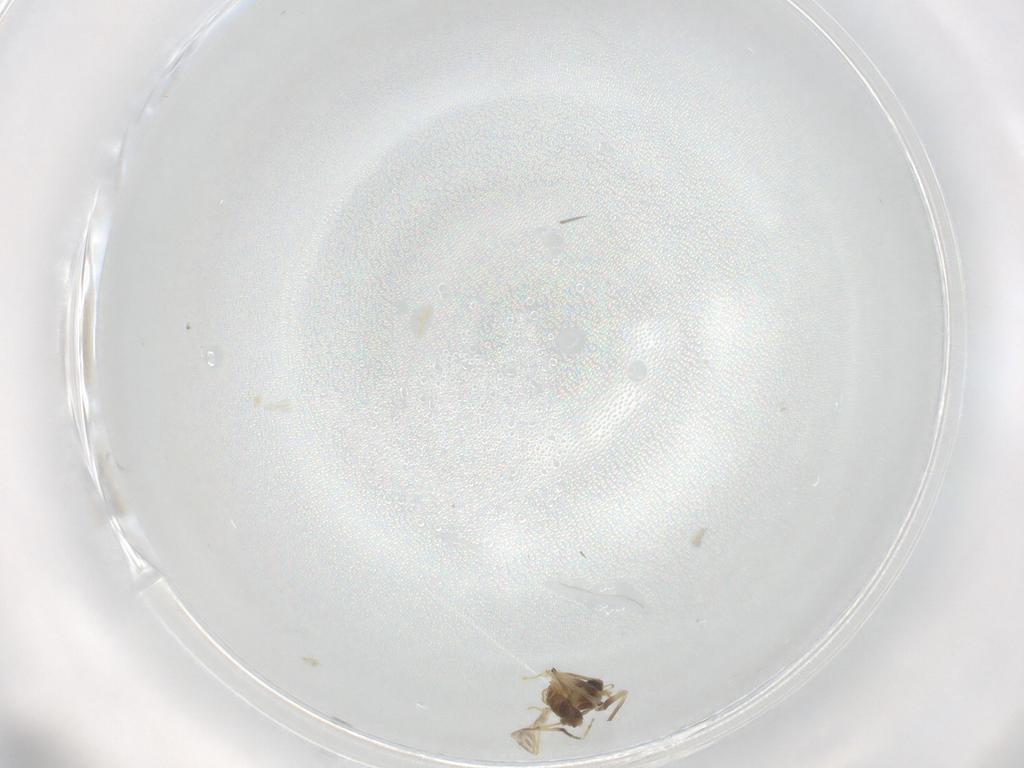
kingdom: Animalia
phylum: Arthropoda
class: Insecta
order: Diptera
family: Chironomidae
